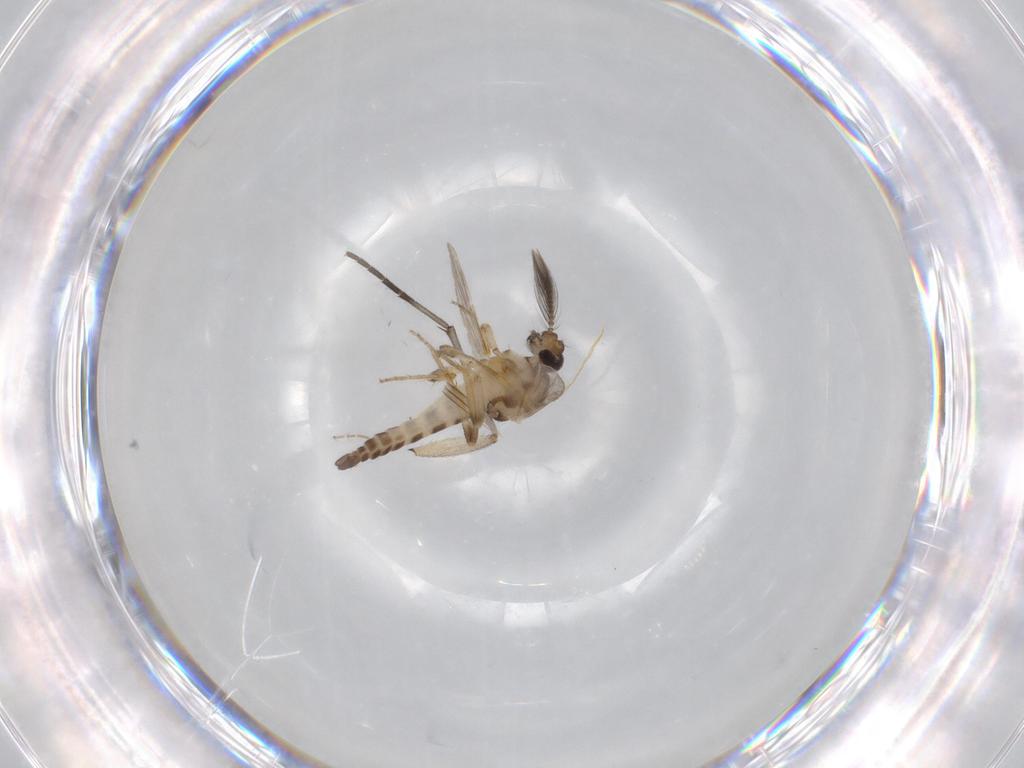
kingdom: Animalia
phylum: Arthropoda
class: Insecta
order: Diptera
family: Ceratopogonidae
